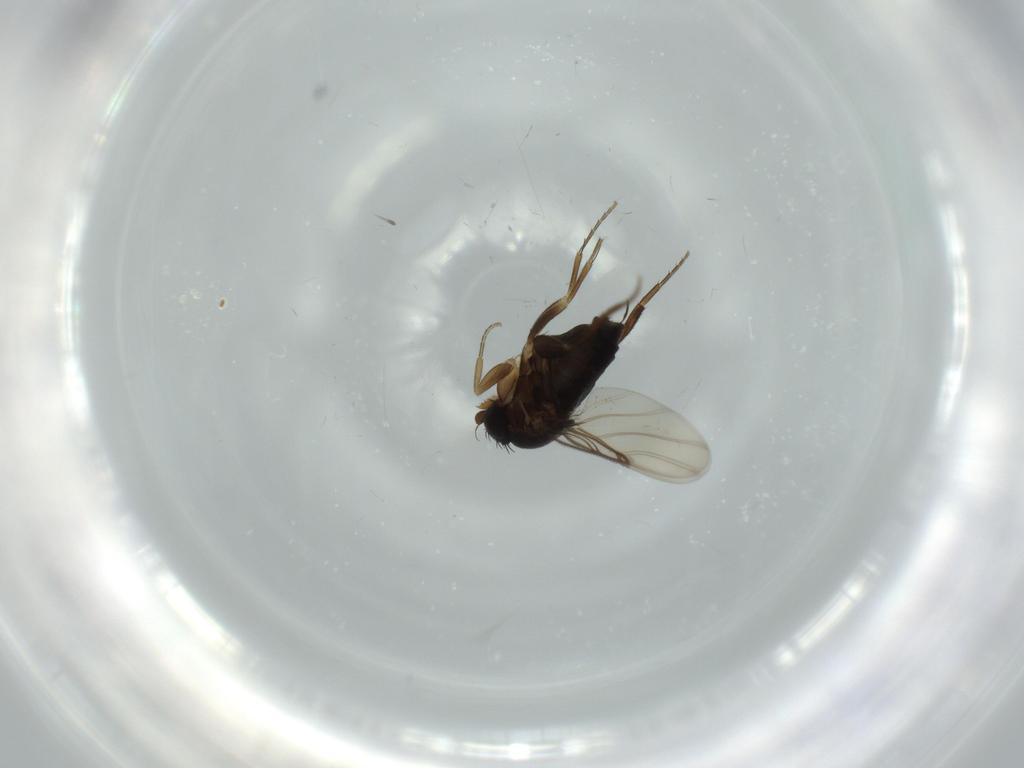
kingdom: Animalia
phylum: Arthropoda
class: Insecta
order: Diptera
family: Phoridae
